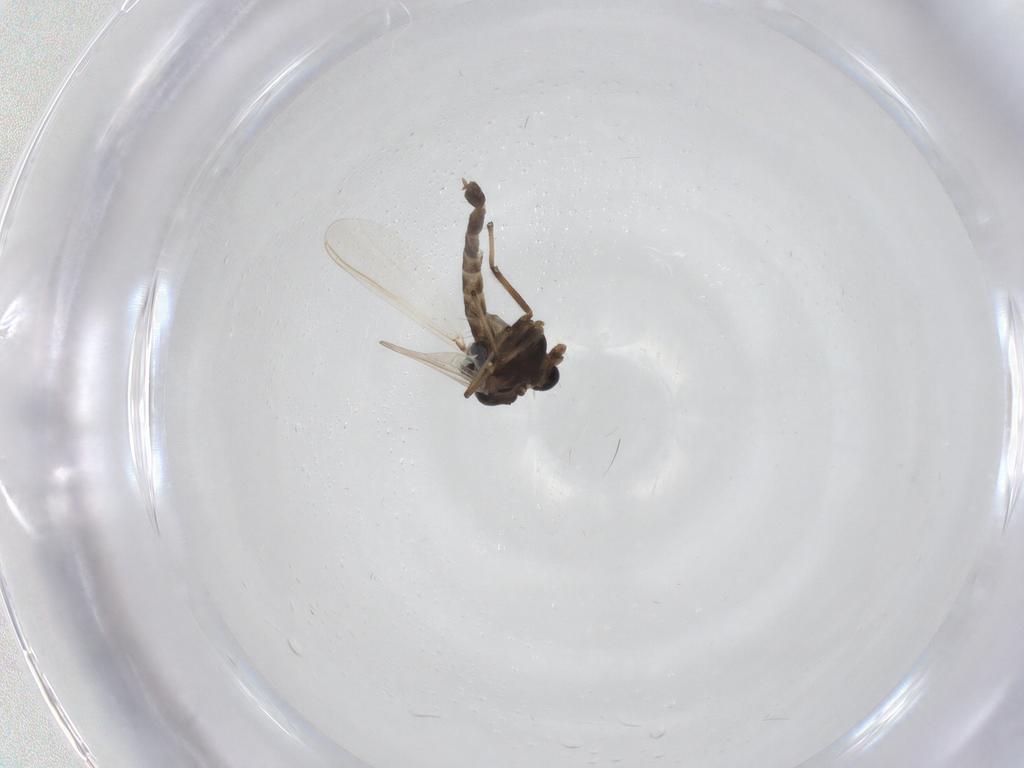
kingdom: Animalia
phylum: Arthropoda
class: Insecta
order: Diptera
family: Chironomidae
